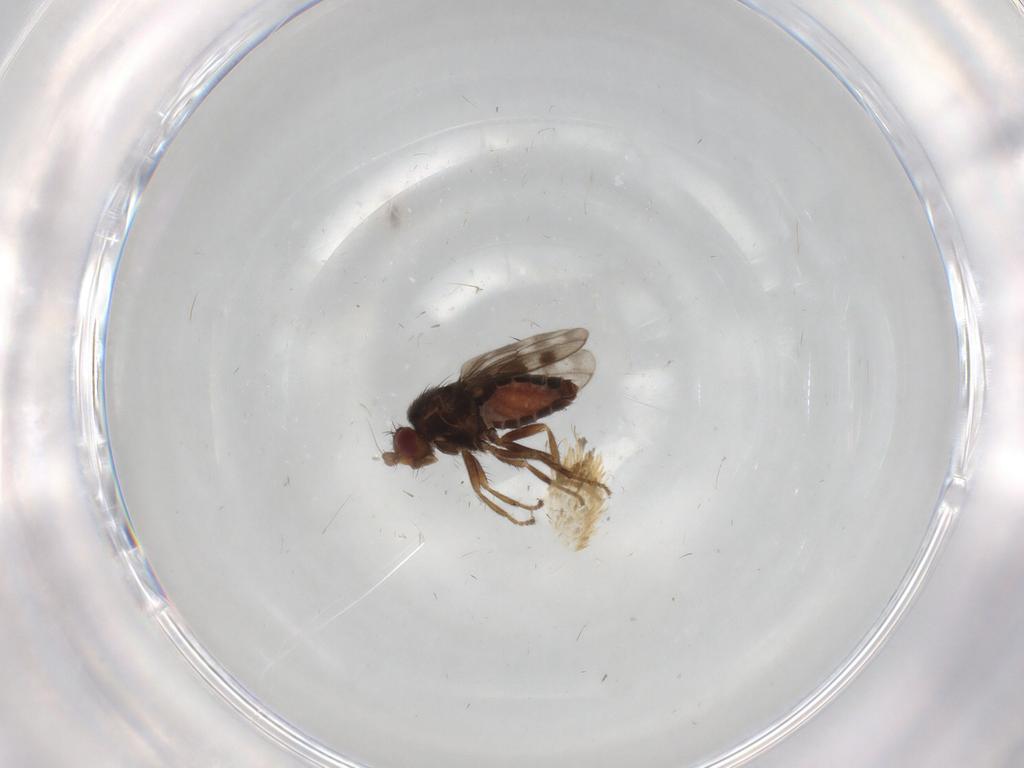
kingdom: Animalia
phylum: Arthropoda
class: Insecta
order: Diptera
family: Sphaeroceridae
